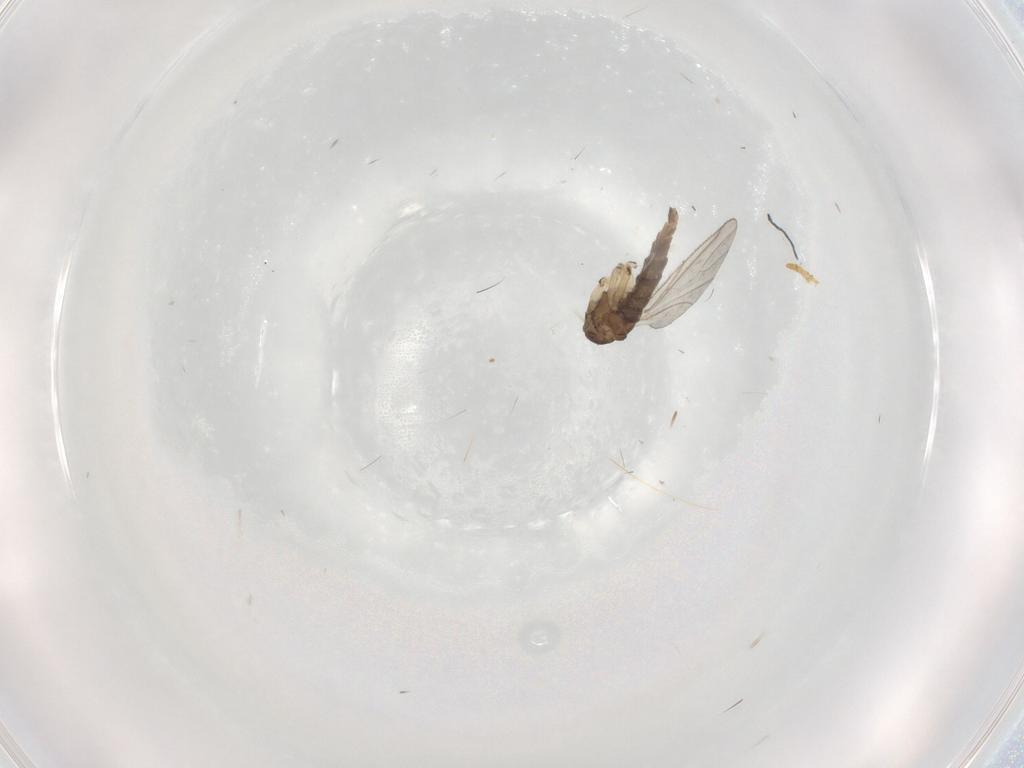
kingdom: Animalia
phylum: Arthropoda
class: Insecta
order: Diptera
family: Sciaridae
